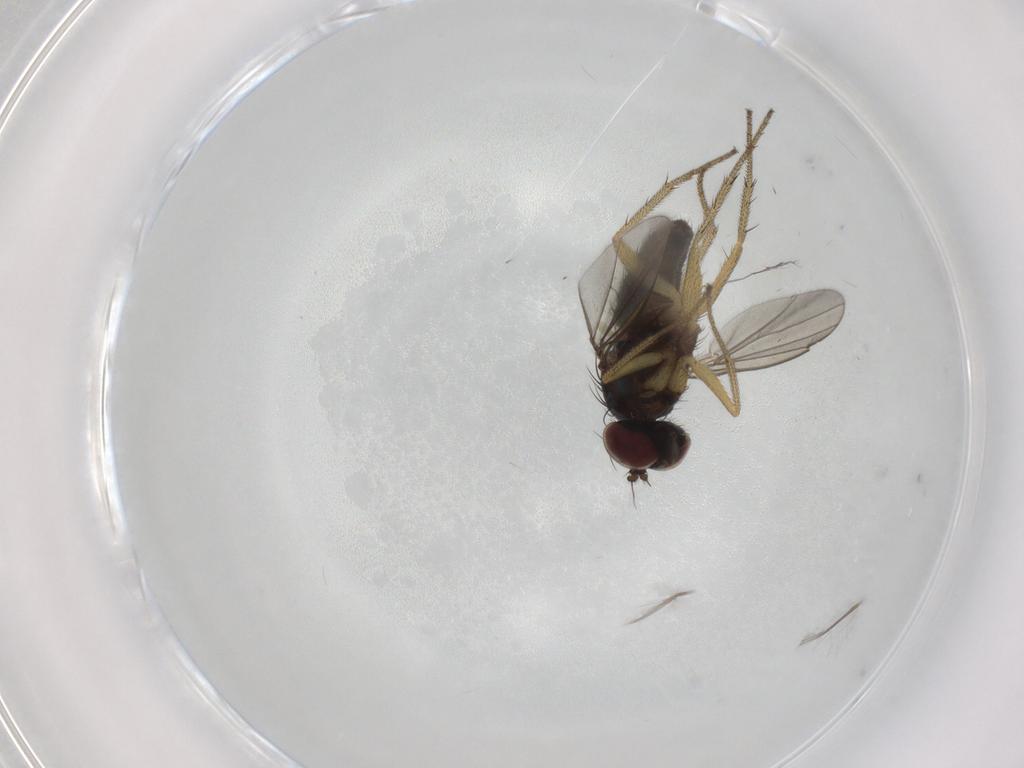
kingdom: Animalia
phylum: Arthropoda
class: Insecta
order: Diptera
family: Chironomidae
